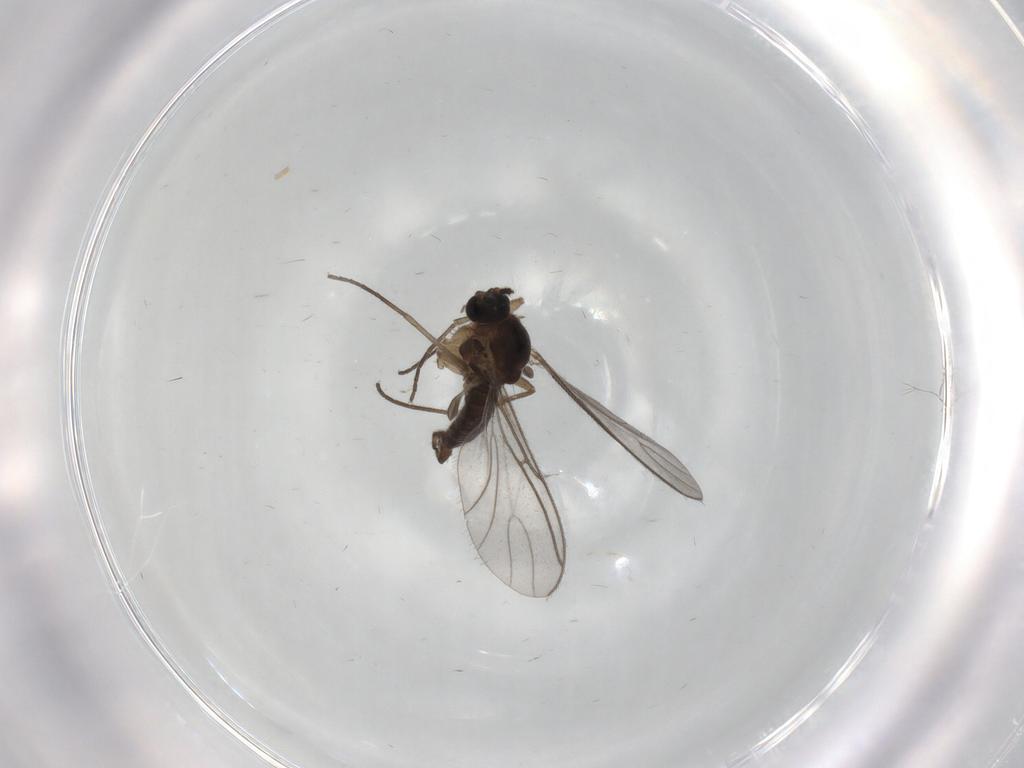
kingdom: Animalia
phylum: Arthropoda
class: Insecta
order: Diptera
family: Ceratopogonidae
